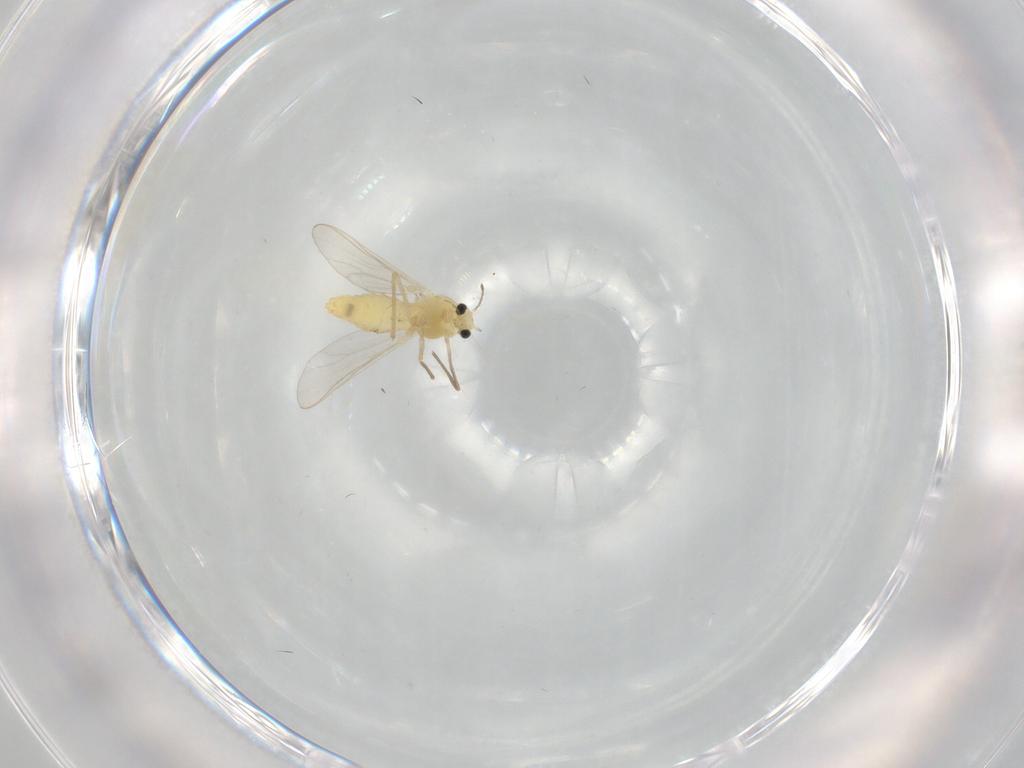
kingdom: Animalia
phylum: Arthropoda
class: Insecta
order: Diptera
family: Chironomidae
